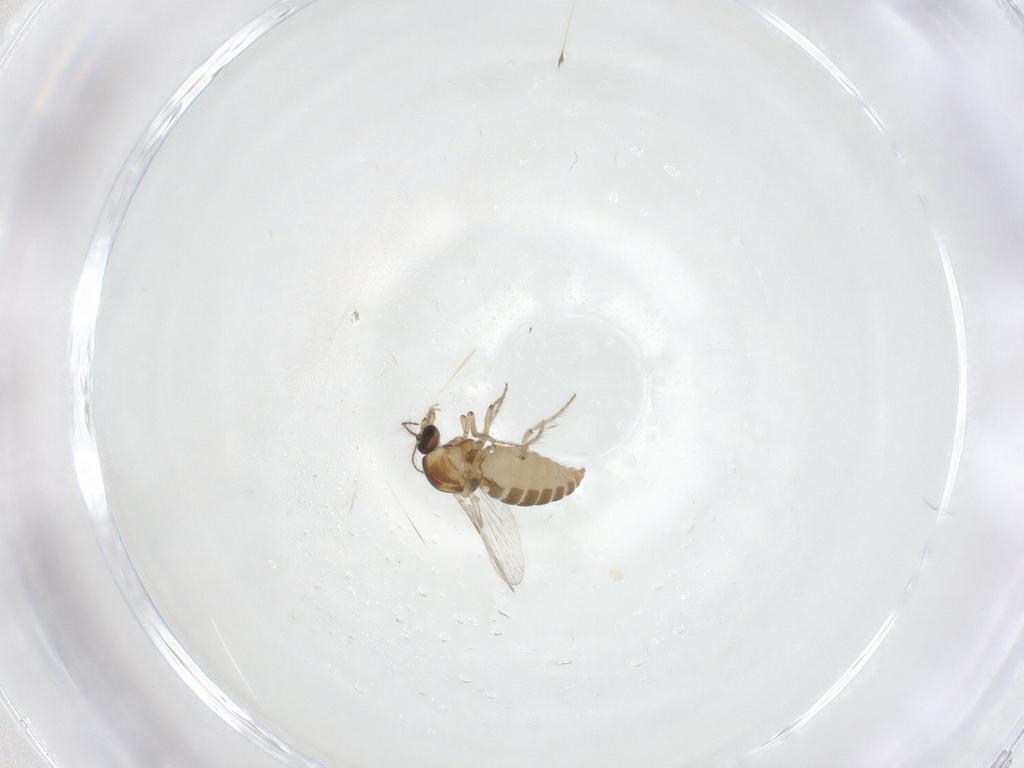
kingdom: Animalia
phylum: Arthropoda
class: Insecta
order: Diptera
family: Ceratopogonidae
